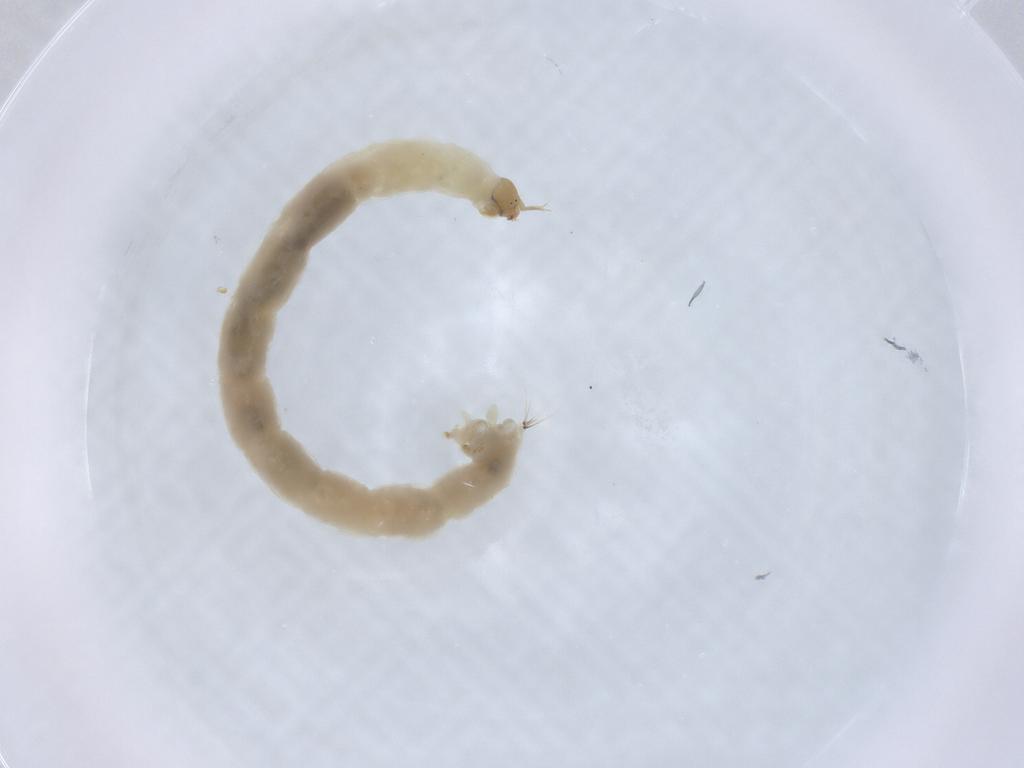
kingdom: Animalia
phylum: Arthropoda
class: Insecta
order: Diptera
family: Chironomidae
